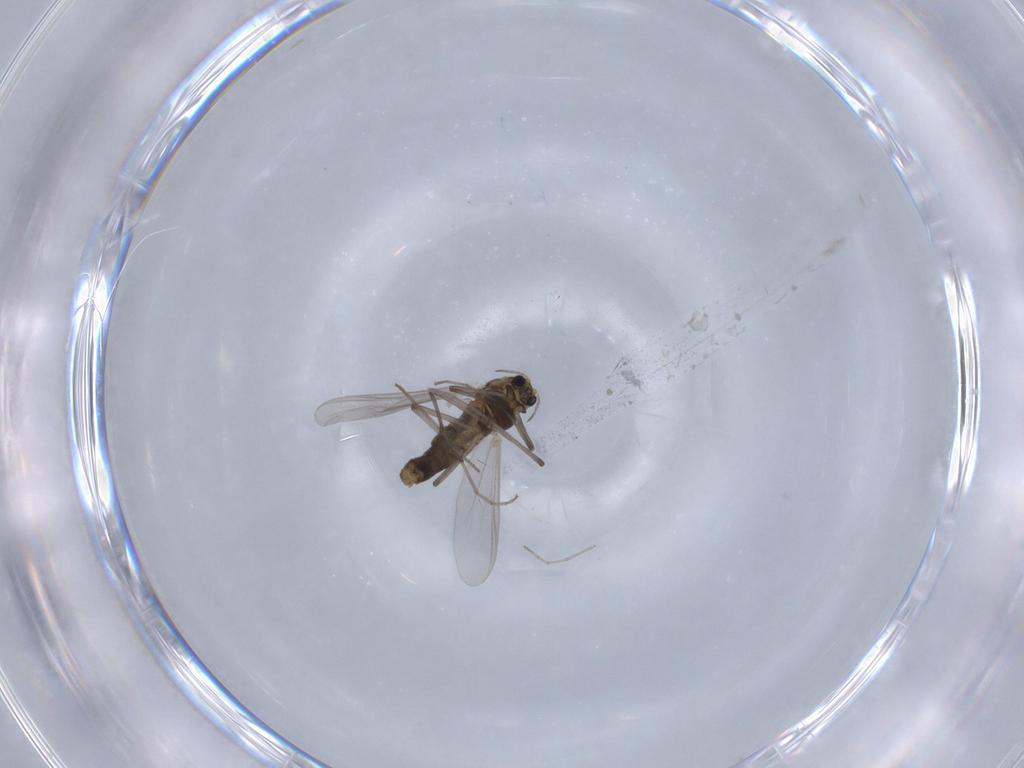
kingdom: Animalia
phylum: Arthropoda
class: Insecta
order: Diptera
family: Chironomidae
